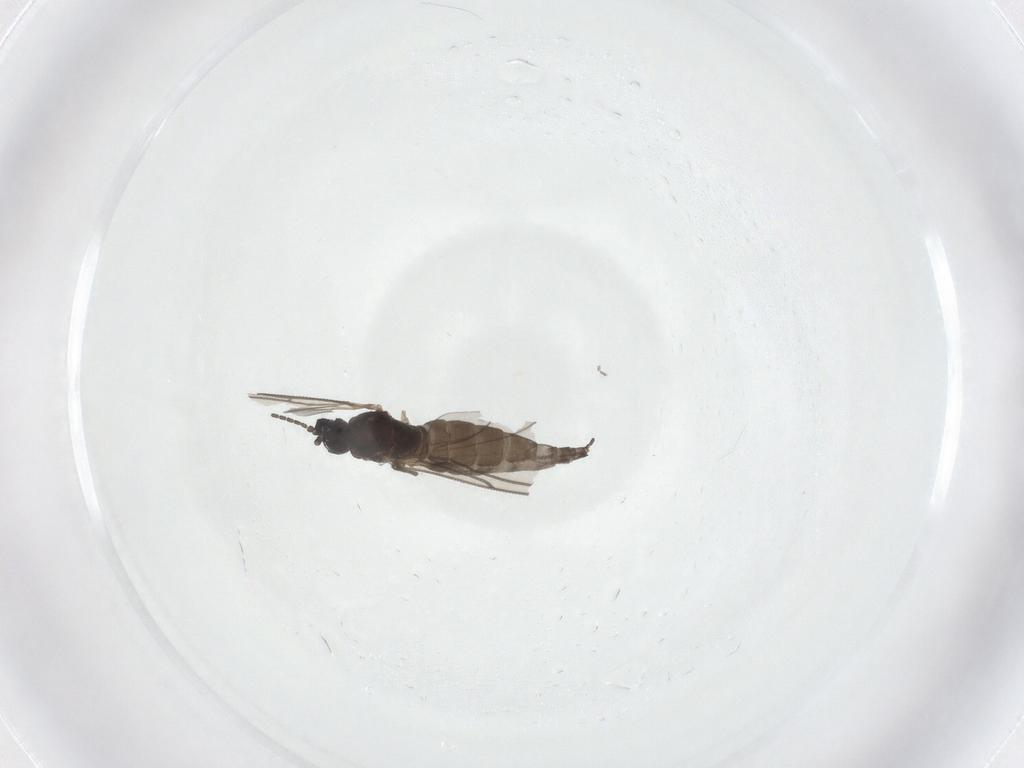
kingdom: Animalia
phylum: Arthropoda
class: Insecta
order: Diptera
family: Sciaridae
